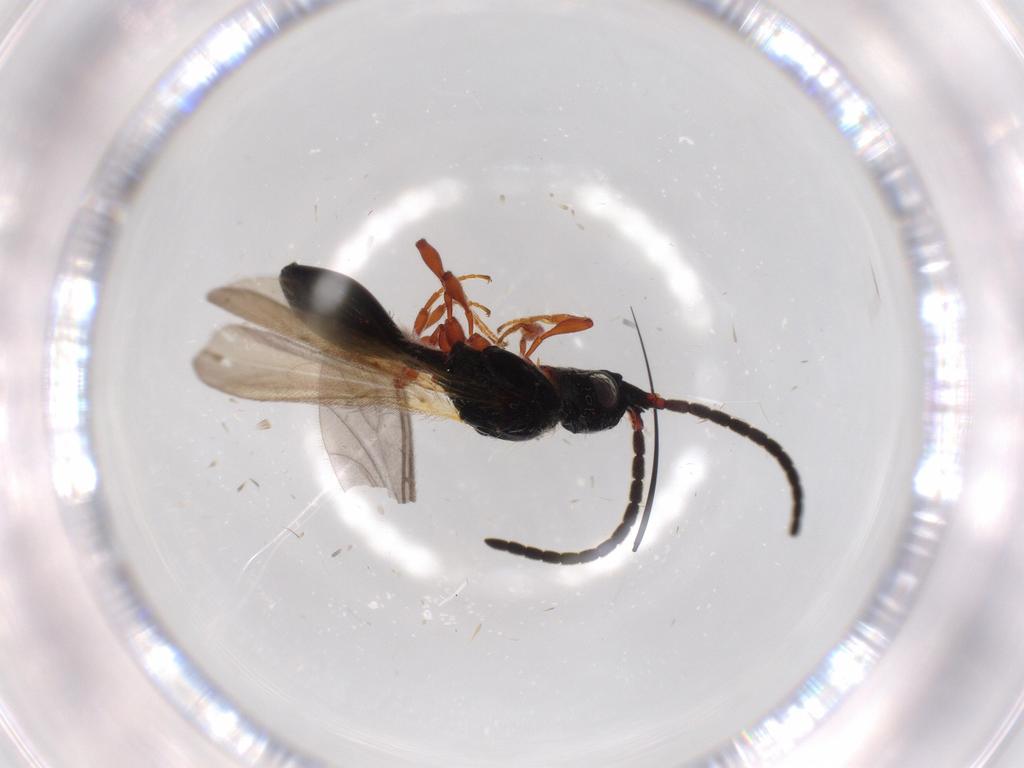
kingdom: Animalia
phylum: Arthropoda
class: Insecta
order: Hymenoptera
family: Diapriidae
